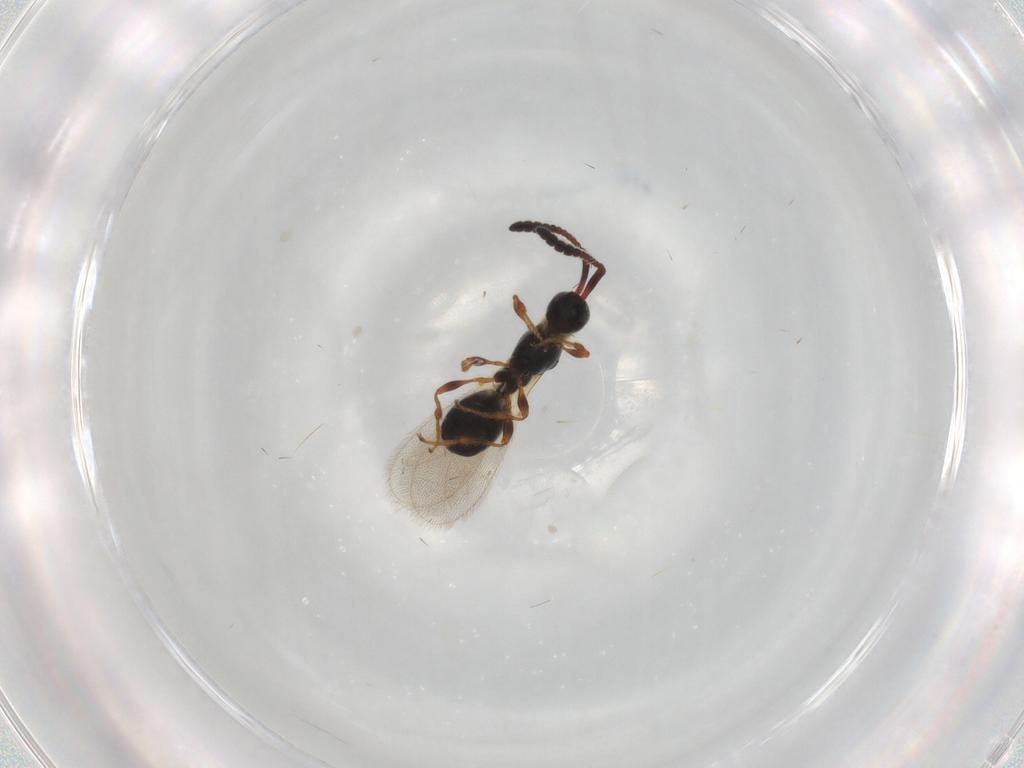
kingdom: Animalia
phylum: Arthropoda
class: Insecta
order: Hymenoptera
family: Diapriidae
